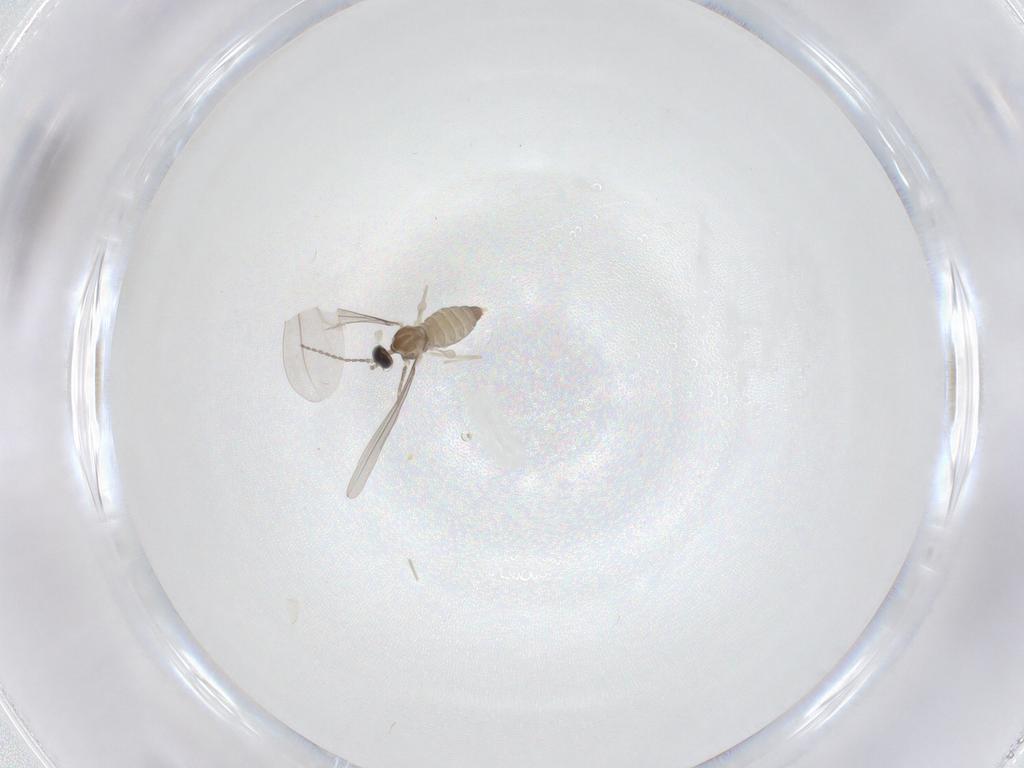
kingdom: Animalia
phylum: Arthropoda
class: Insecta
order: Diptera
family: Cecidomyiidae
